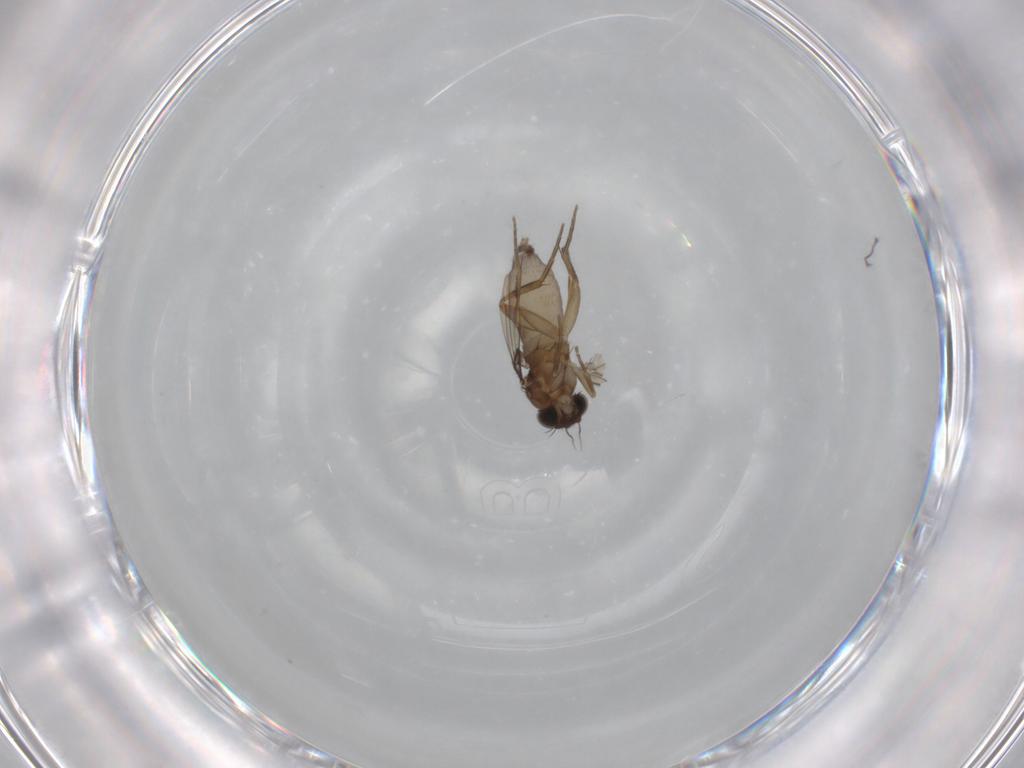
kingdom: Animalia
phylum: Arthropoda
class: Insecta
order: Diptera
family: Phoridae
